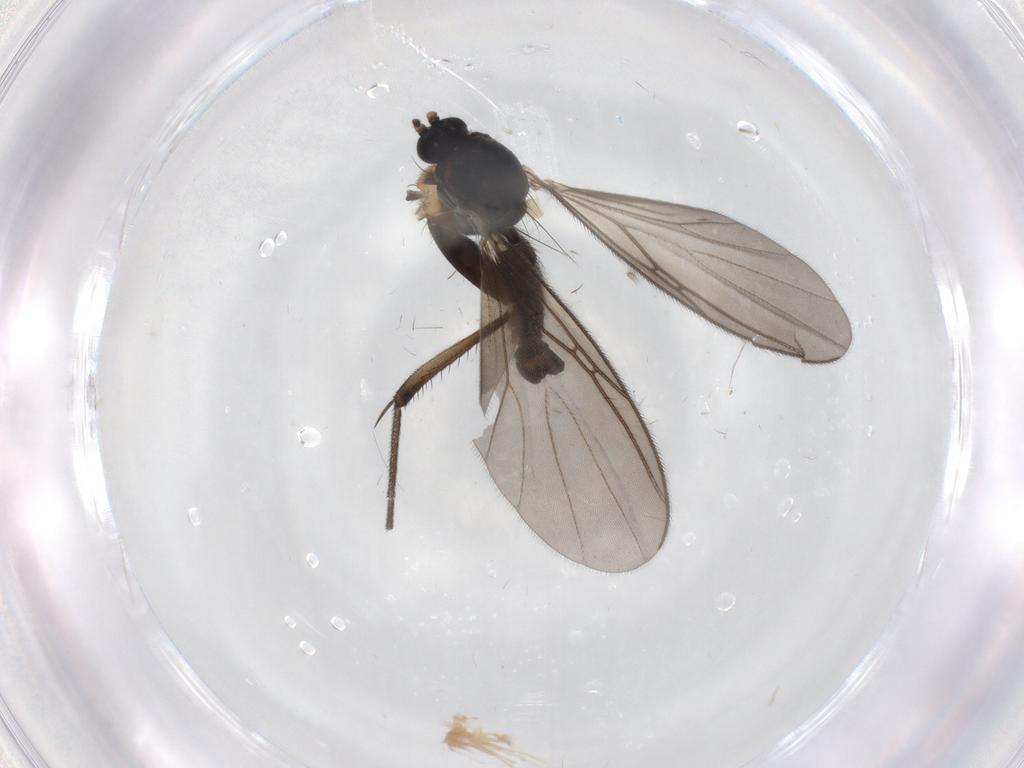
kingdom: Animalia
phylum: Arthropoda
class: Insecta
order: Diptera
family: Mycetophilidae
